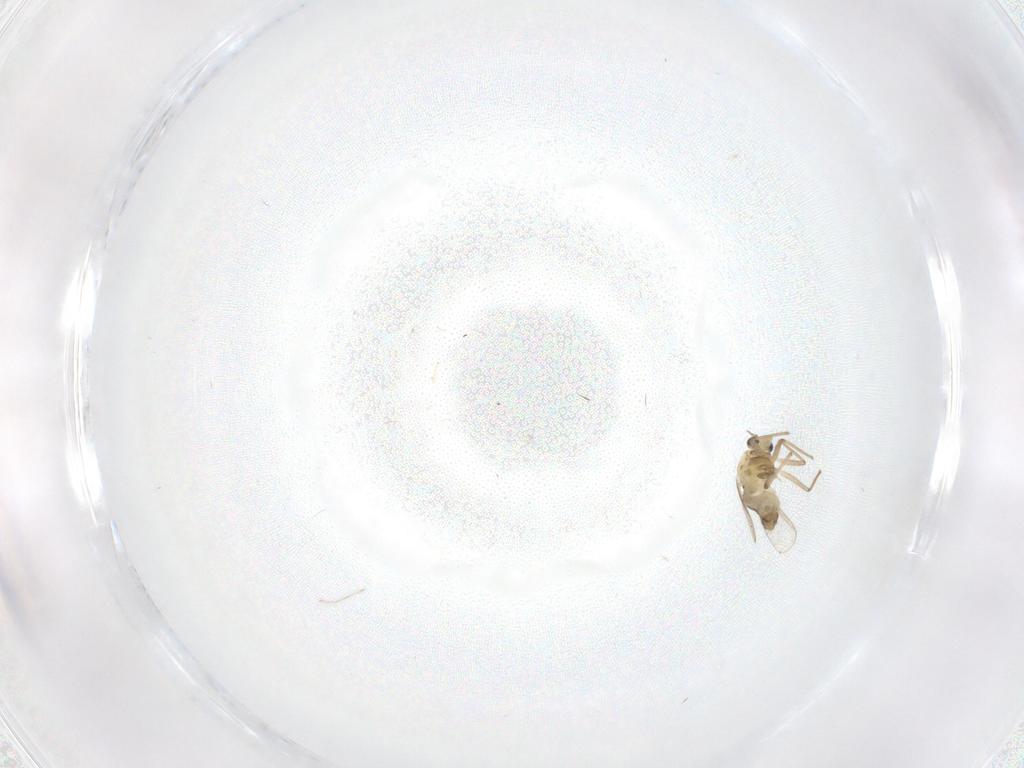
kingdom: Animalia
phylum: Arthropoda
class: Insecta
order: Diptera
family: Chironomidae
